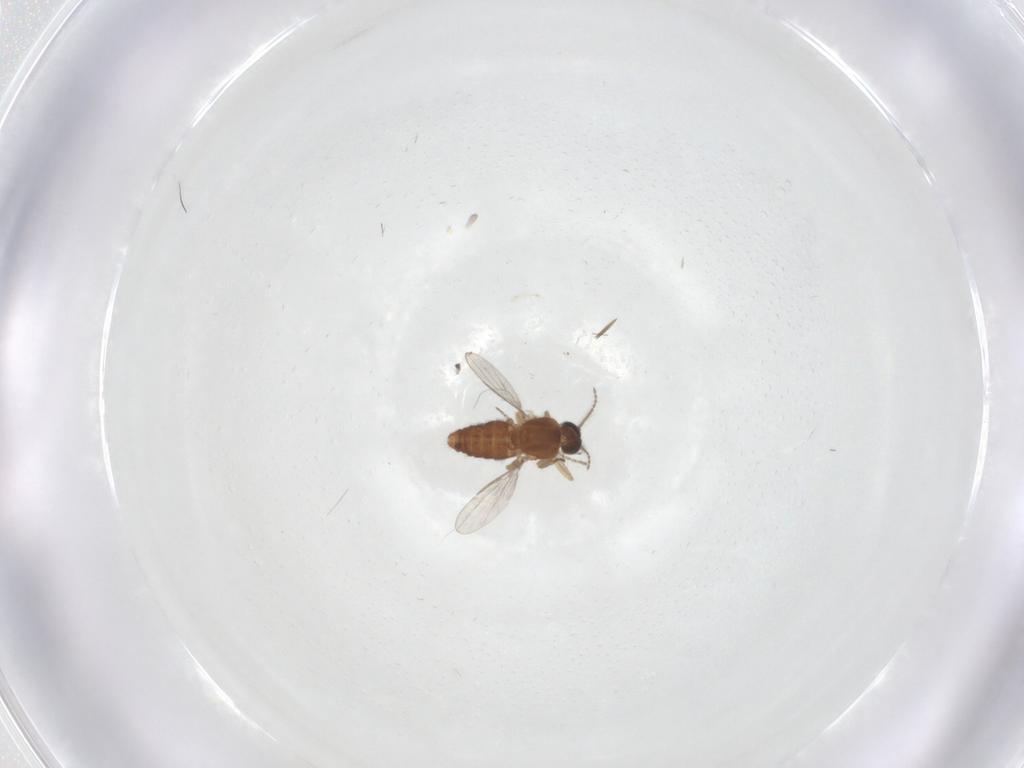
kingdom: Animalia
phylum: Arthropoda
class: Insecta
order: Diptera
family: Ceratopogonidae
